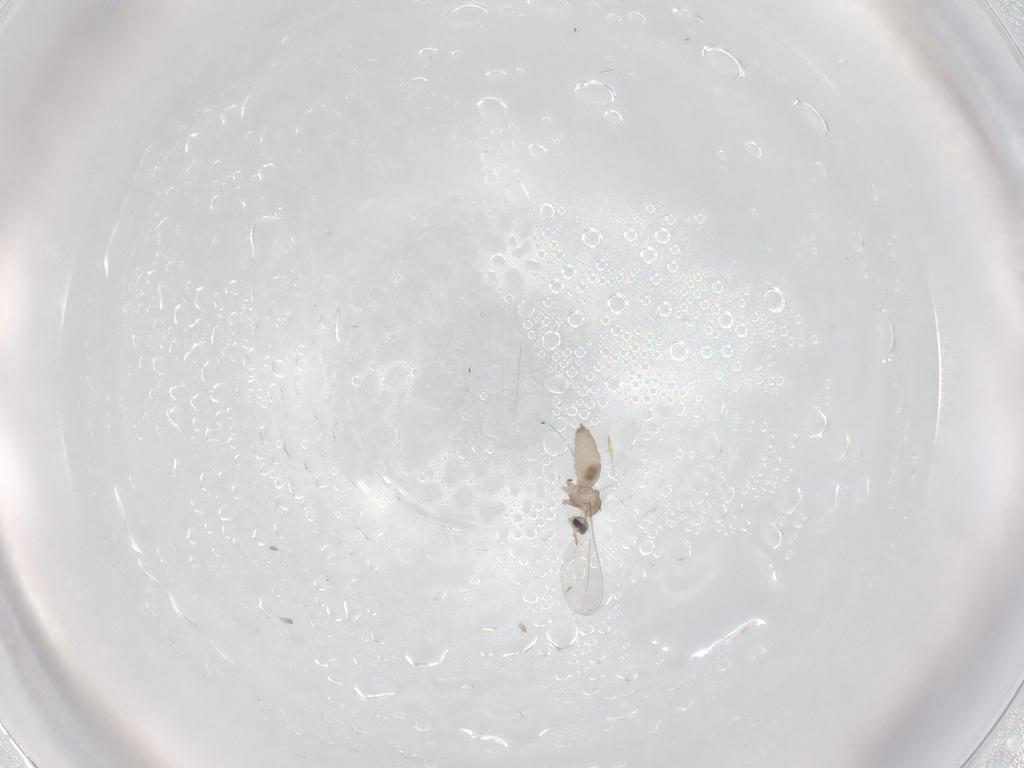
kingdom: Animalia
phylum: Arthropoda
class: Insecta
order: Diptera
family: Cecidomyiidae
